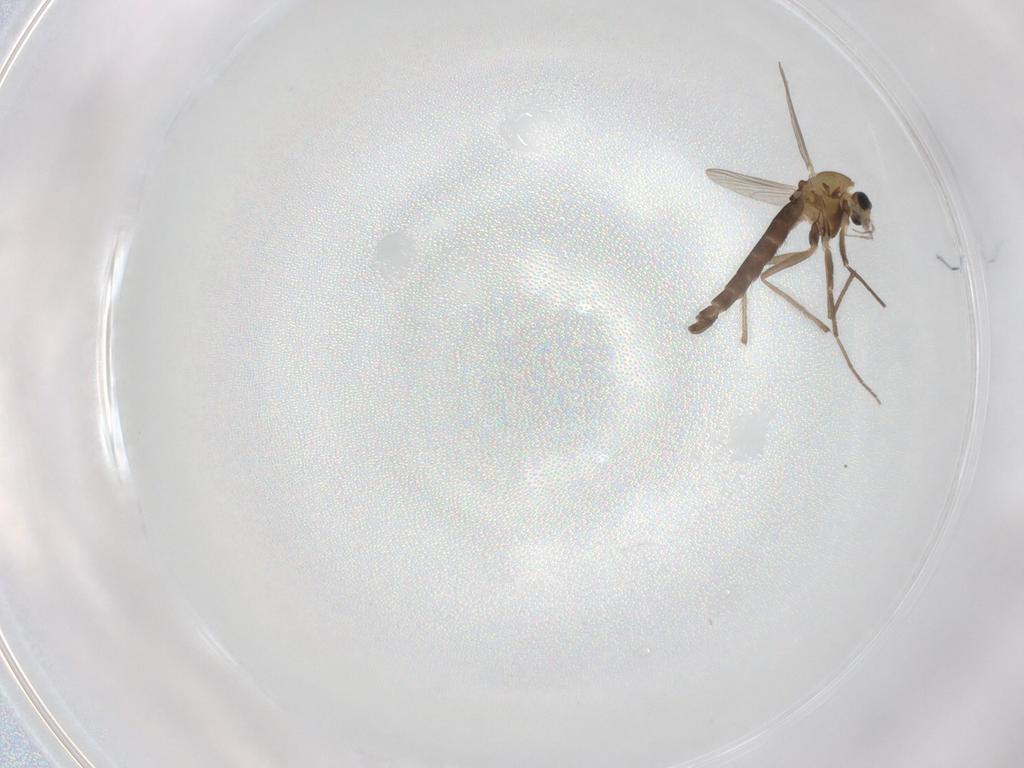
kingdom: Animalia
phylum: Arthropoda
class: Insecta
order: Diptera
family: Chironomidae
